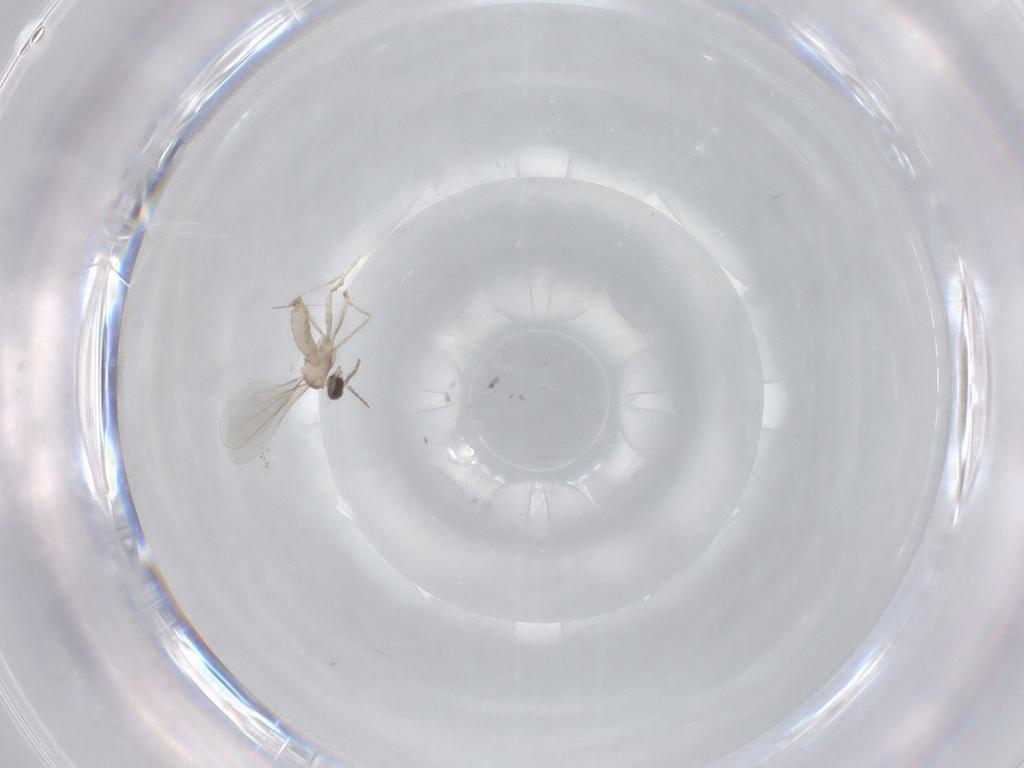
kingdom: Animalia
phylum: Arthropoda
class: Insecta
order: Diptera
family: Cecidomyiidae
